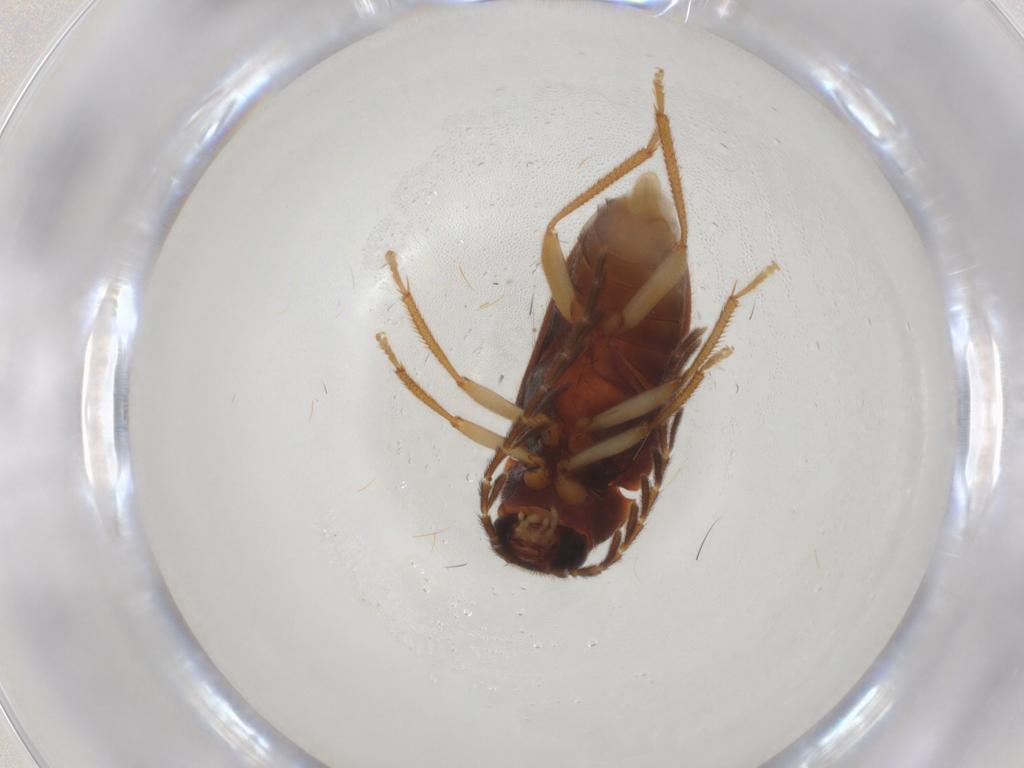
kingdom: Animalia
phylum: Arthropoda
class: Insecta
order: Coleoptera
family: Ptilodactylidae
